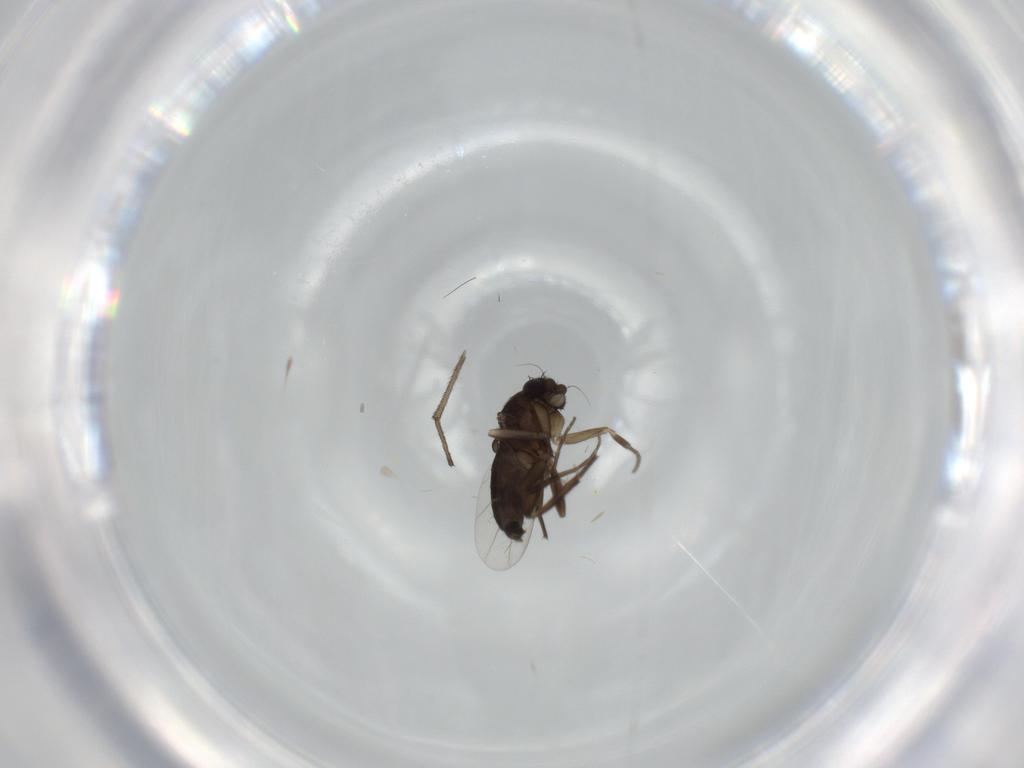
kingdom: Animalia
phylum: Arthropoda
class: Insecta
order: Diptera
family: Phoridae
